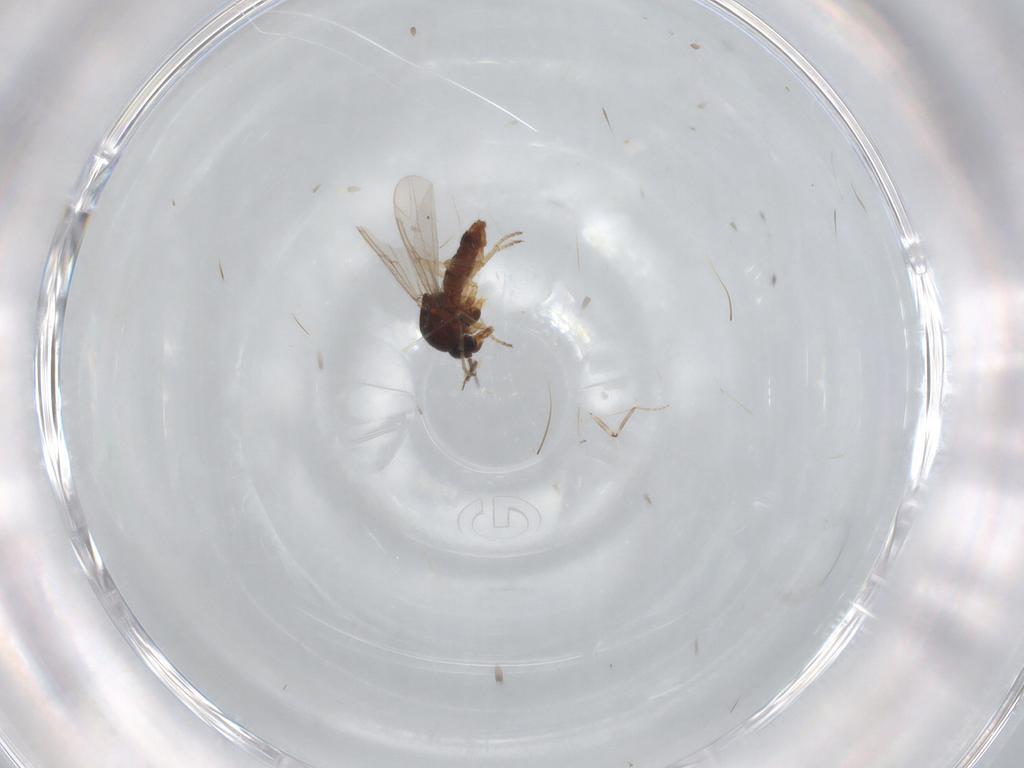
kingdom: Animalia
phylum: Arthropoda
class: Insecta
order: Diptera
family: Ceratopogonidae
